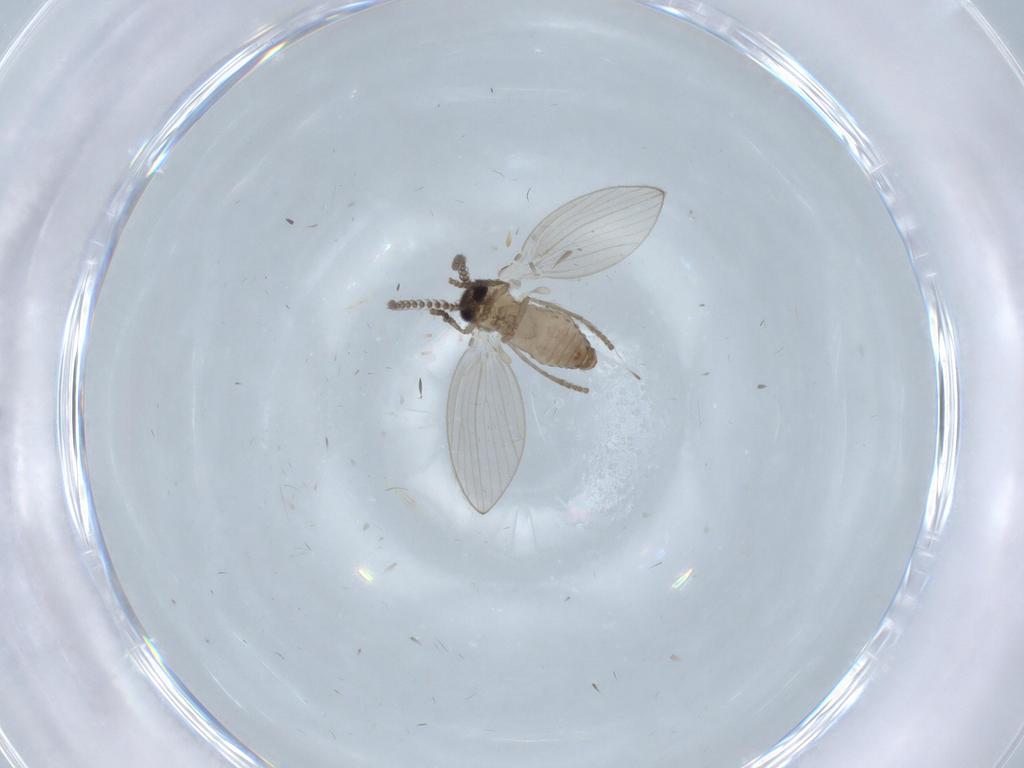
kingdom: Animalia
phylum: Arthropoda
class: Insecta
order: Diptera
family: Psychodidae
